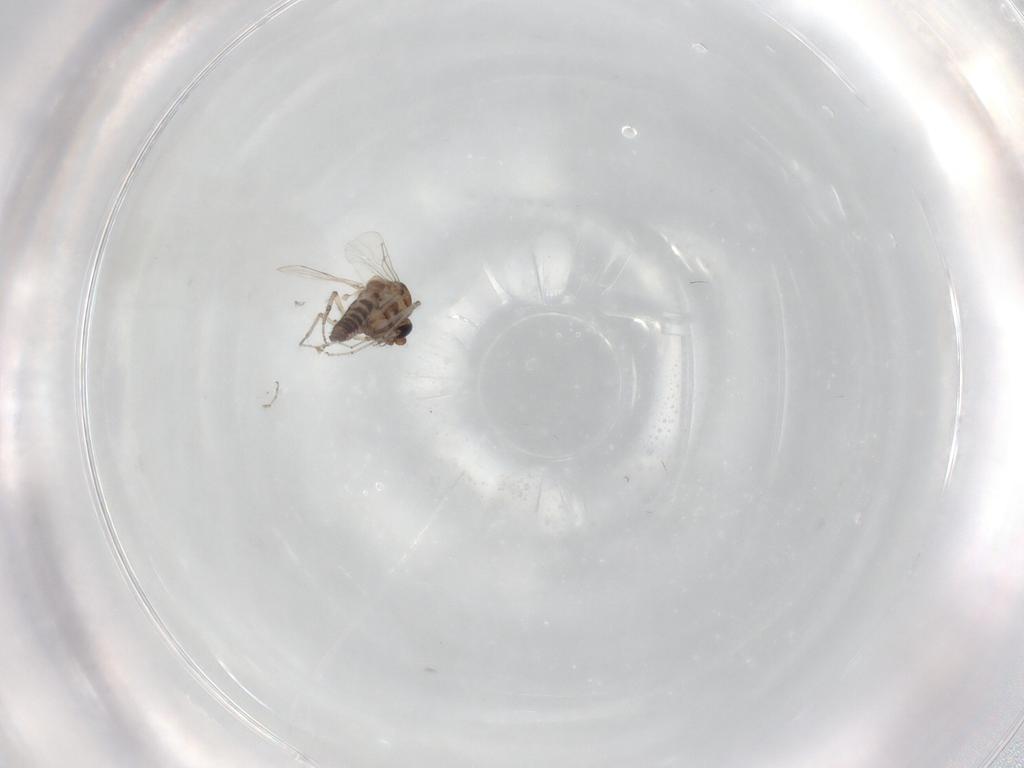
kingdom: Animalia
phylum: Arthropoda
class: Insecta
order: Diptera
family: Ceratopogonidae
